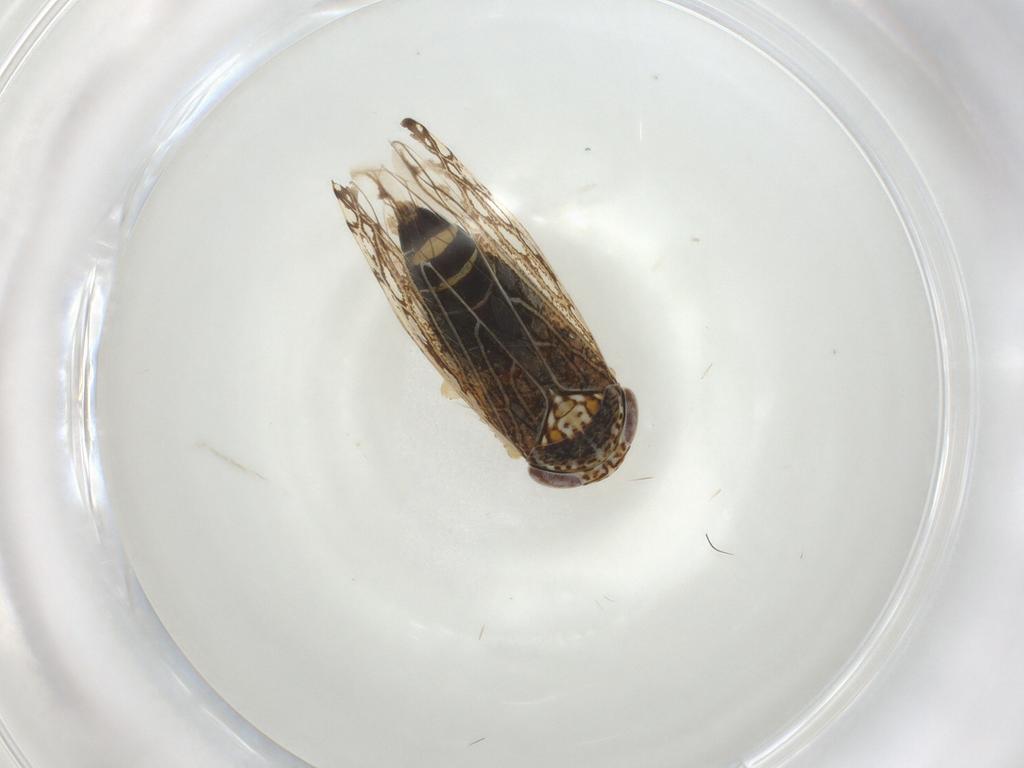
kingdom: Animalia
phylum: Arthropoda
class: Insecta
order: Hemiptera
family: Cicadellidae
